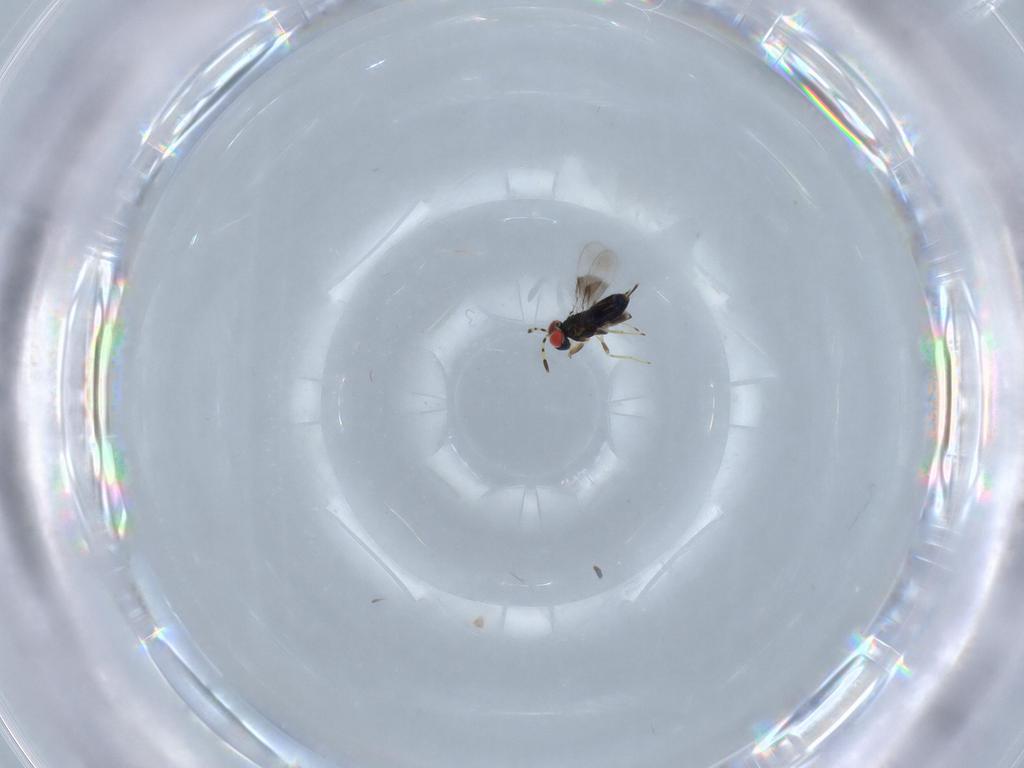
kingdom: Animalia
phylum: Arthropoda
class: Insecta
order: Hymenoptera
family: Azotidae
